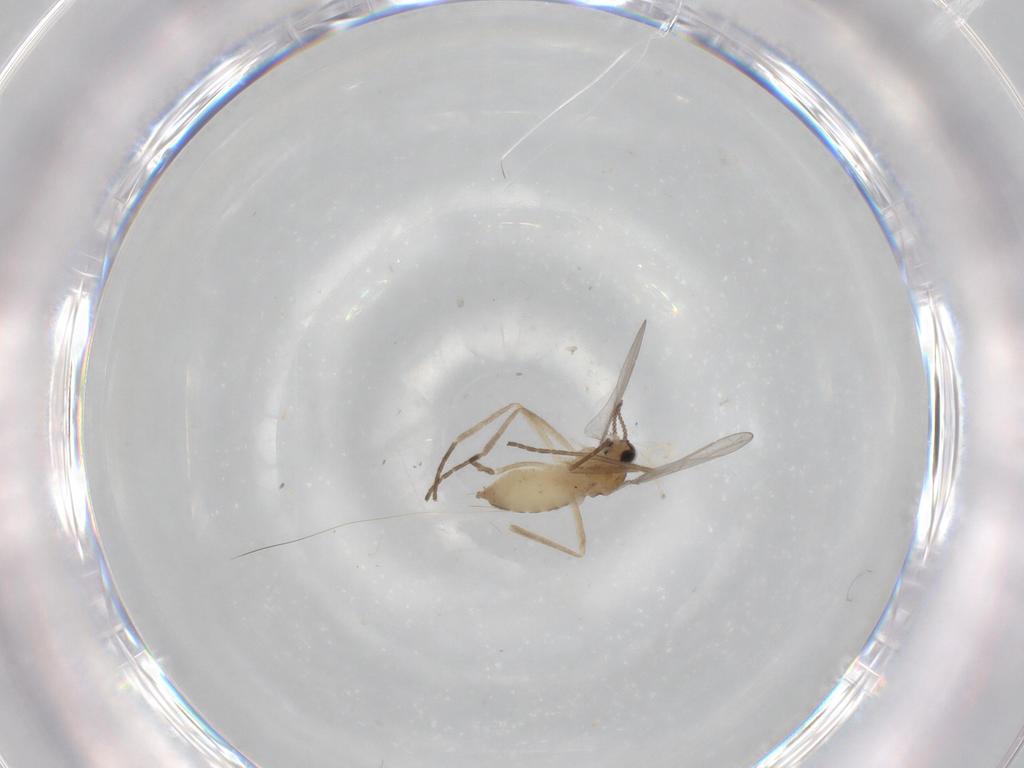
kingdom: Animalia
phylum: Arthropoda
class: Insecta
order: Diptera
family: Cecidomyiidae
